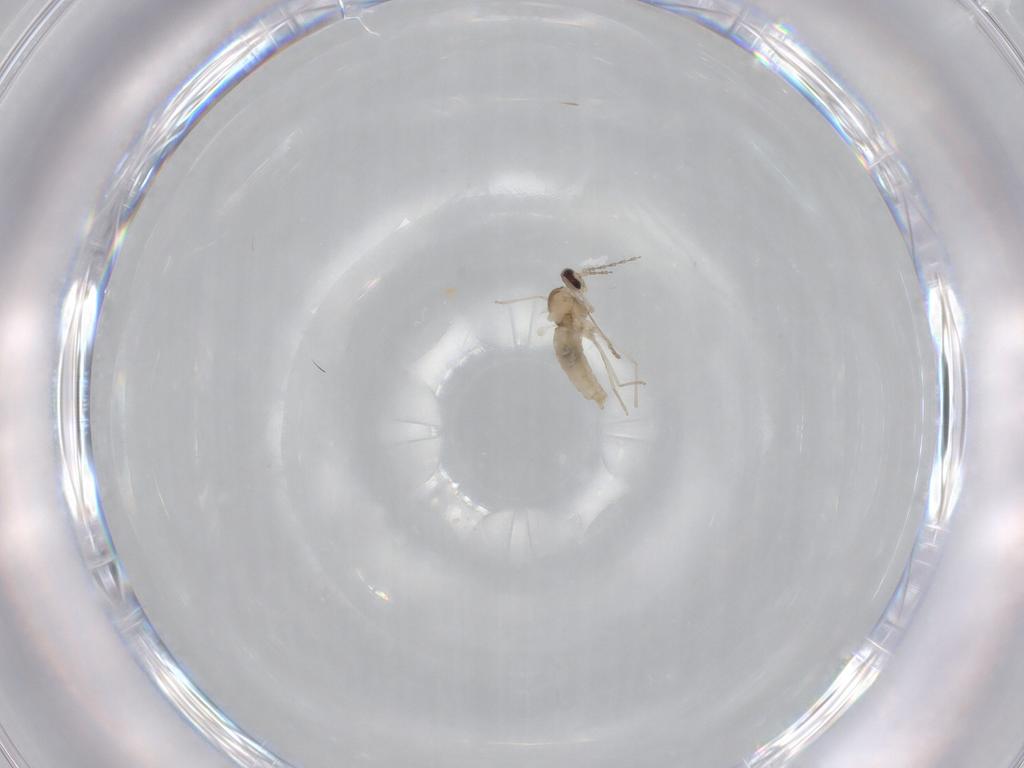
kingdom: Animalia
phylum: Arthropoda
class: Insecta
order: Diptera
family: Cecidomyiidae
